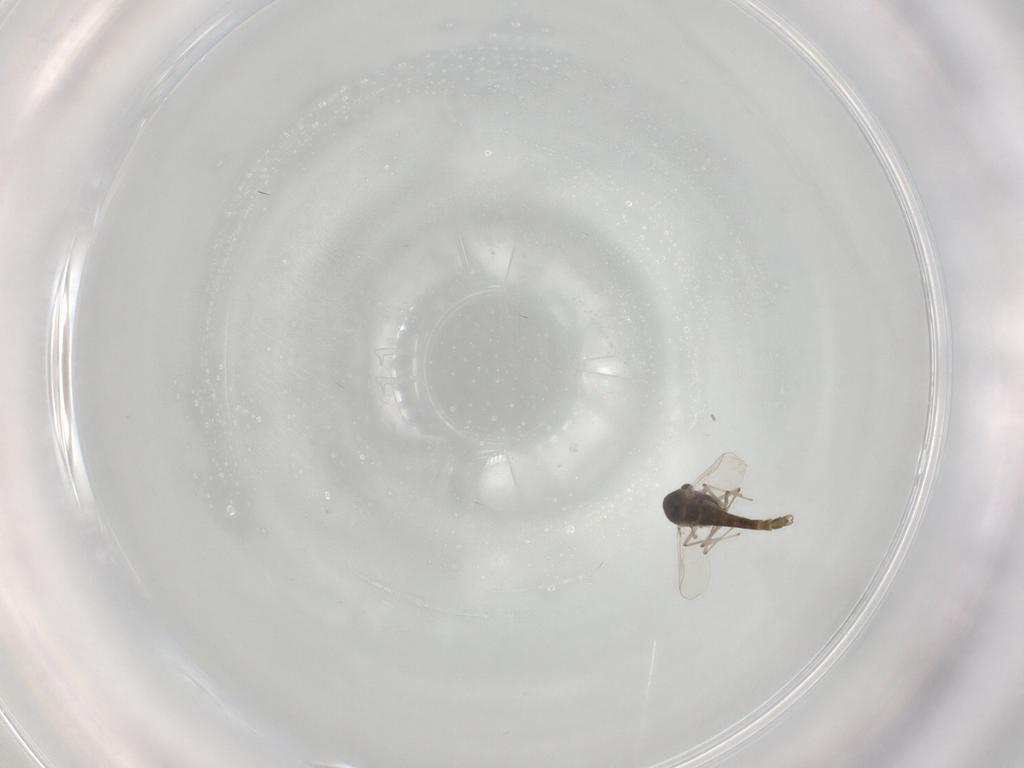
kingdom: Animalia
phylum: Arthropoda
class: Insecta
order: Diptera
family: Chironomidae
